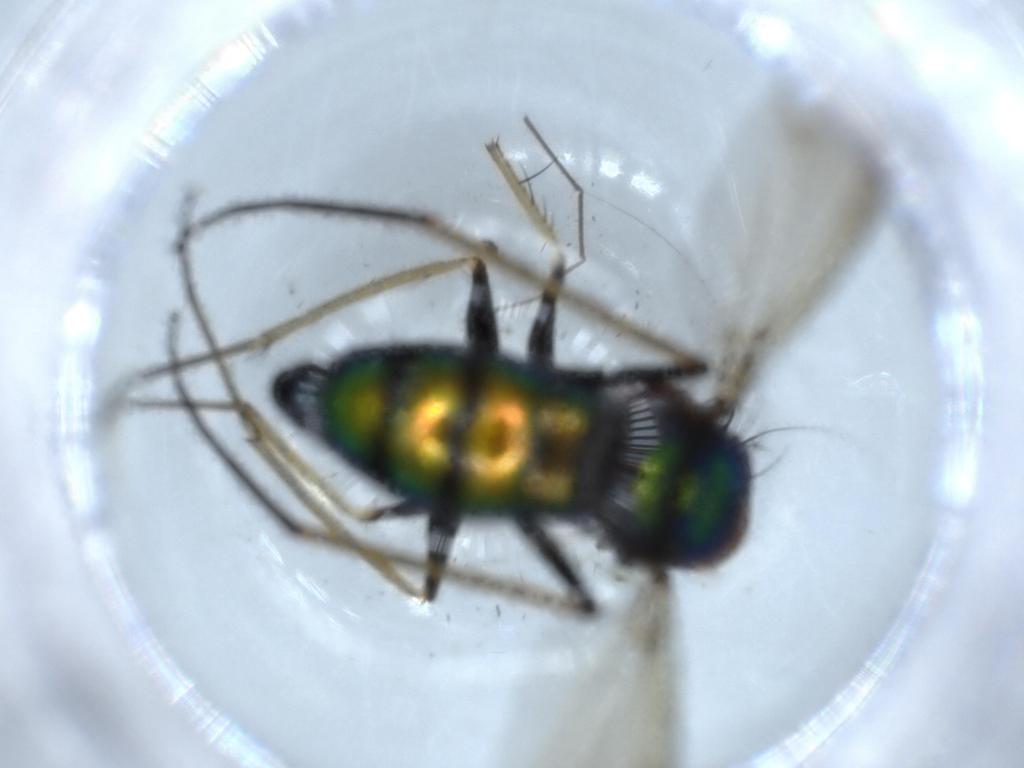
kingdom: Animalia
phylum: Arthropoda
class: Insecta
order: Diptera
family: Dolichopodidae
